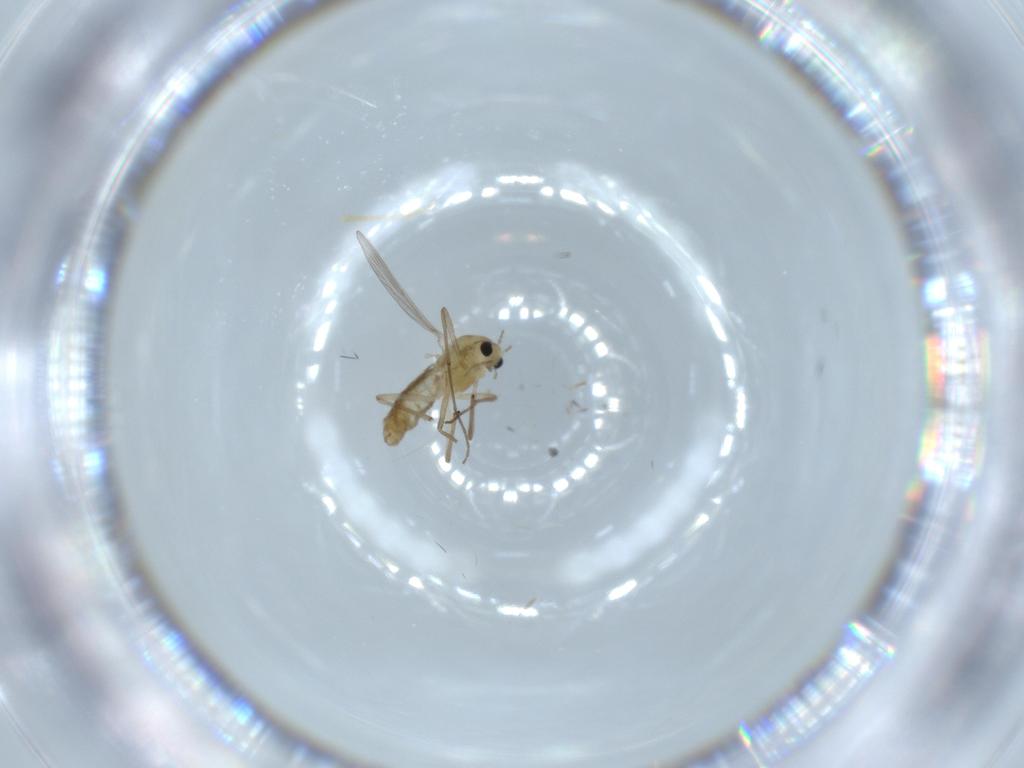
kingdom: Animalia
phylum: Arthropoda
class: Insecta
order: Diptera
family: Chironomidae
